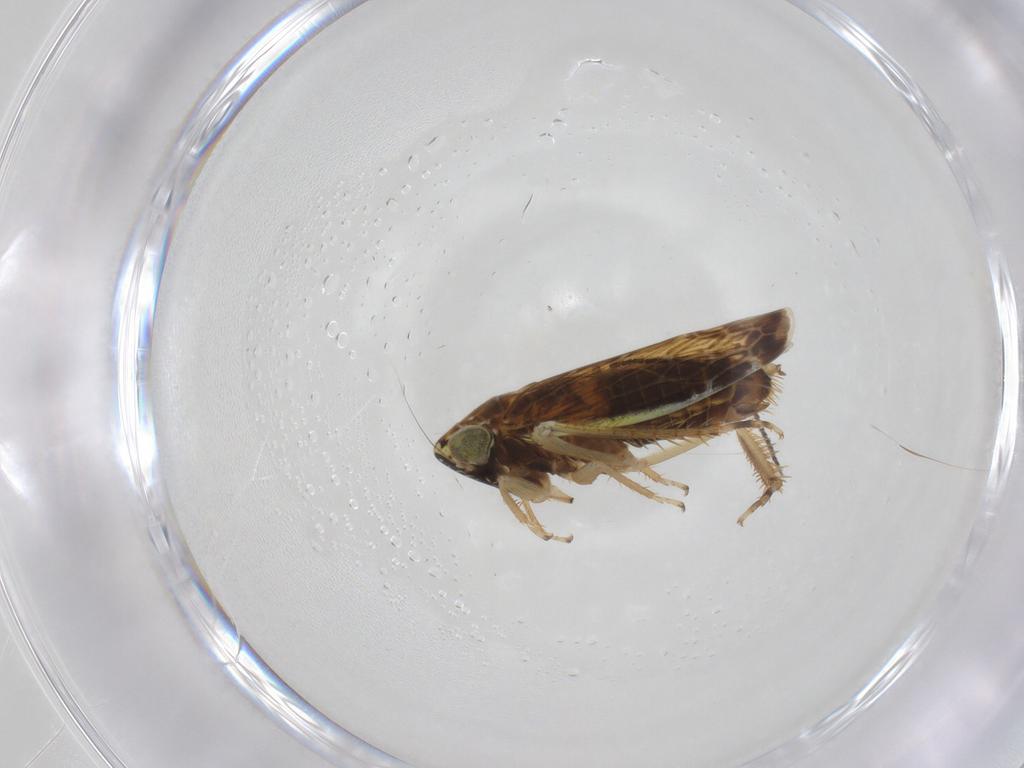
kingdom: Animalia
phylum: Arthropoda
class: Insecta
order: Hemiptera
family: Cicadellidae
